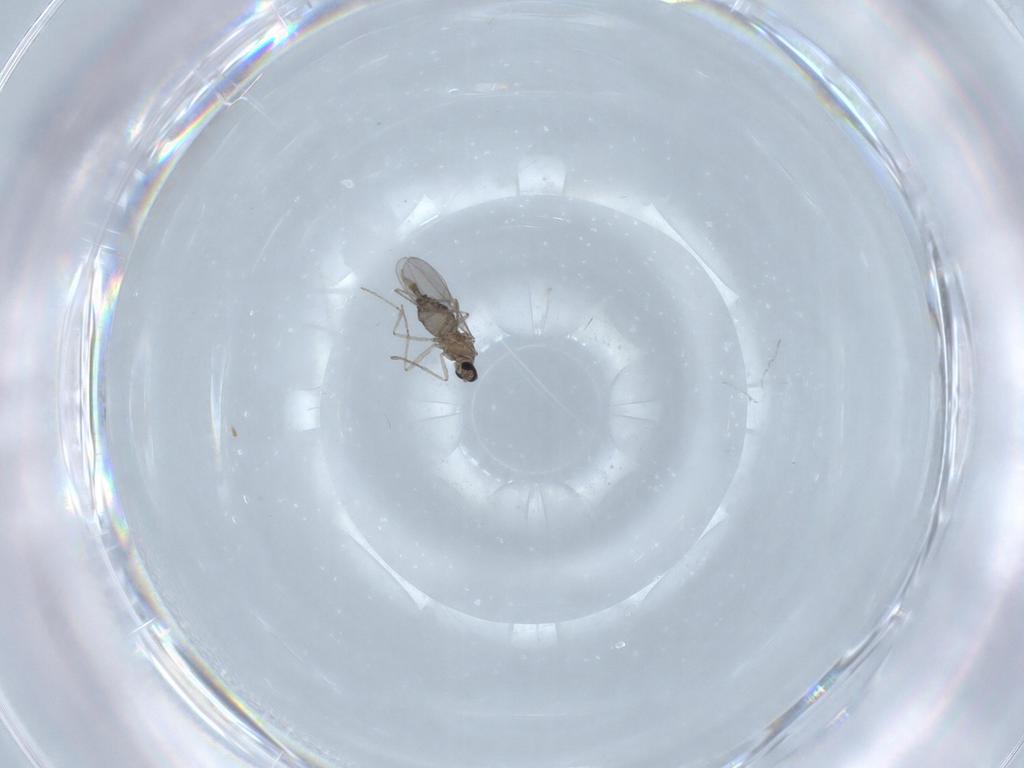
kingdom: Animalia
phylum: Arthropoda
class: Insecta
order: Diptera
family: Cecidomyiidae
